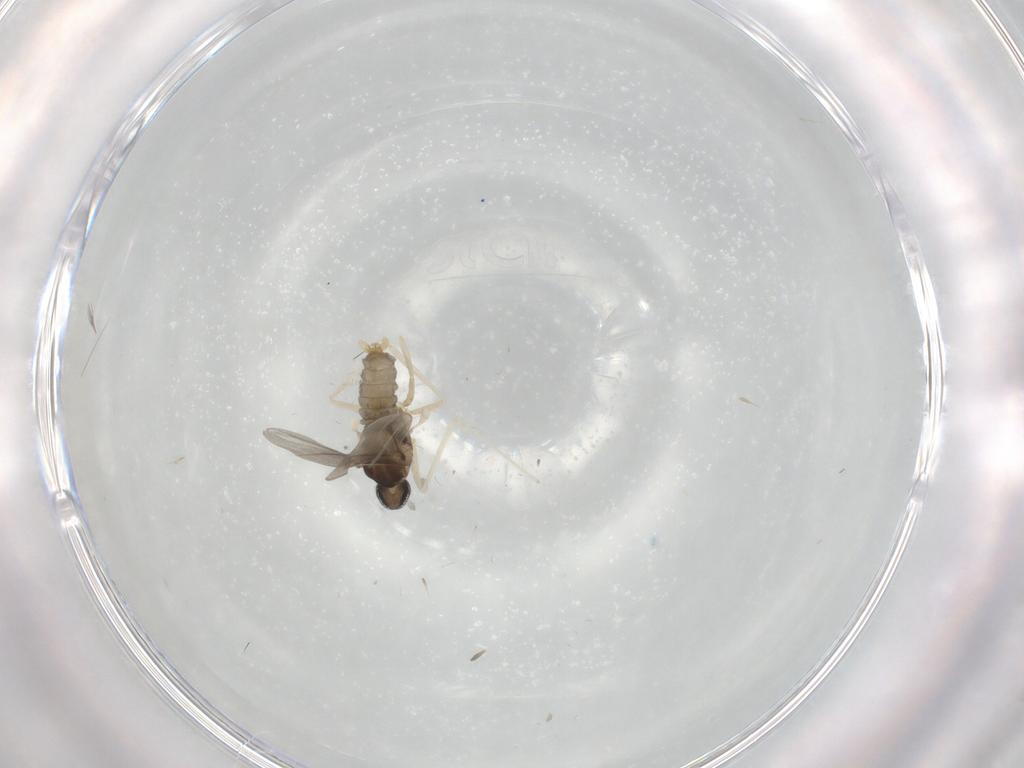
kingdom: Animalia
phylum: Arthropoda
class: Insecta
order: Diptera
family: Cecidomyiidae
